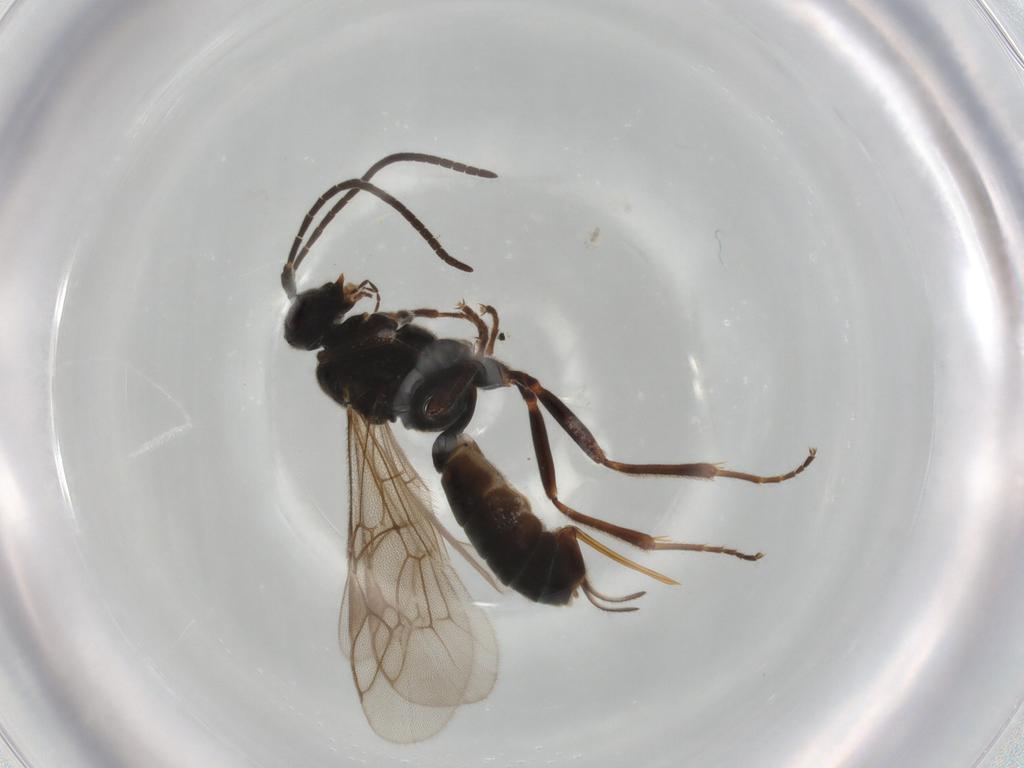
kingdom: Animalia
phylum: Arthropoda
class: Insecta
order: Hymenoptera
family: Ichneumonidae
